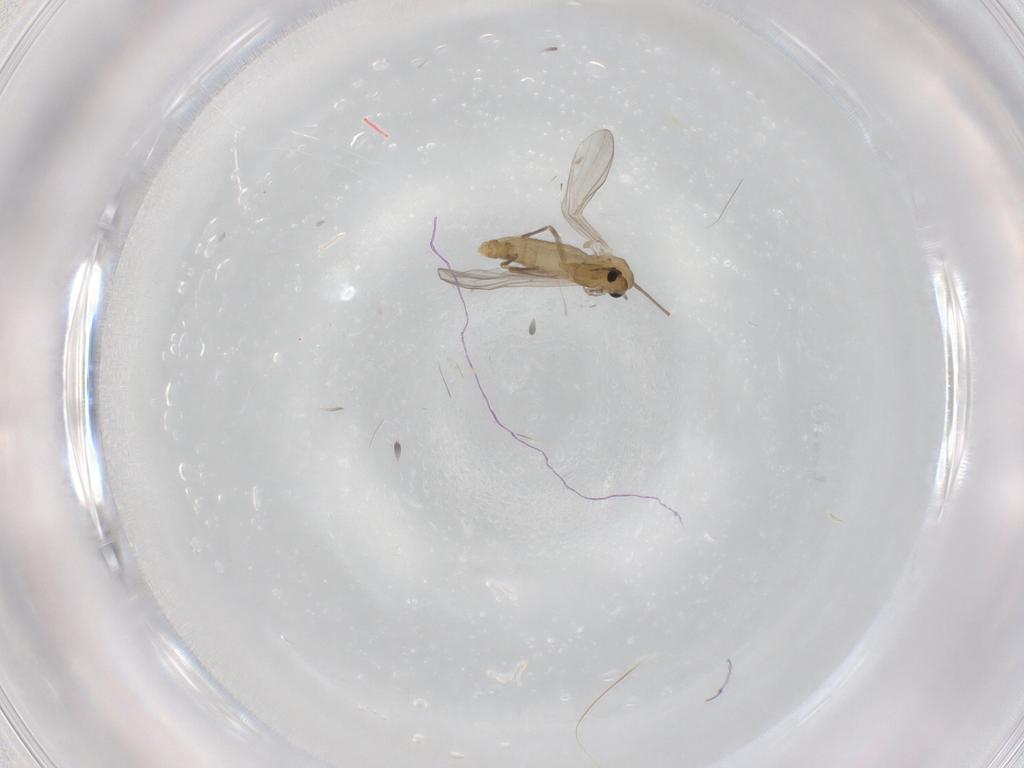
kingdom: Animalia
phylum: Arthropoda
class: Insecta
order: Diptera
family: Chironomidae
